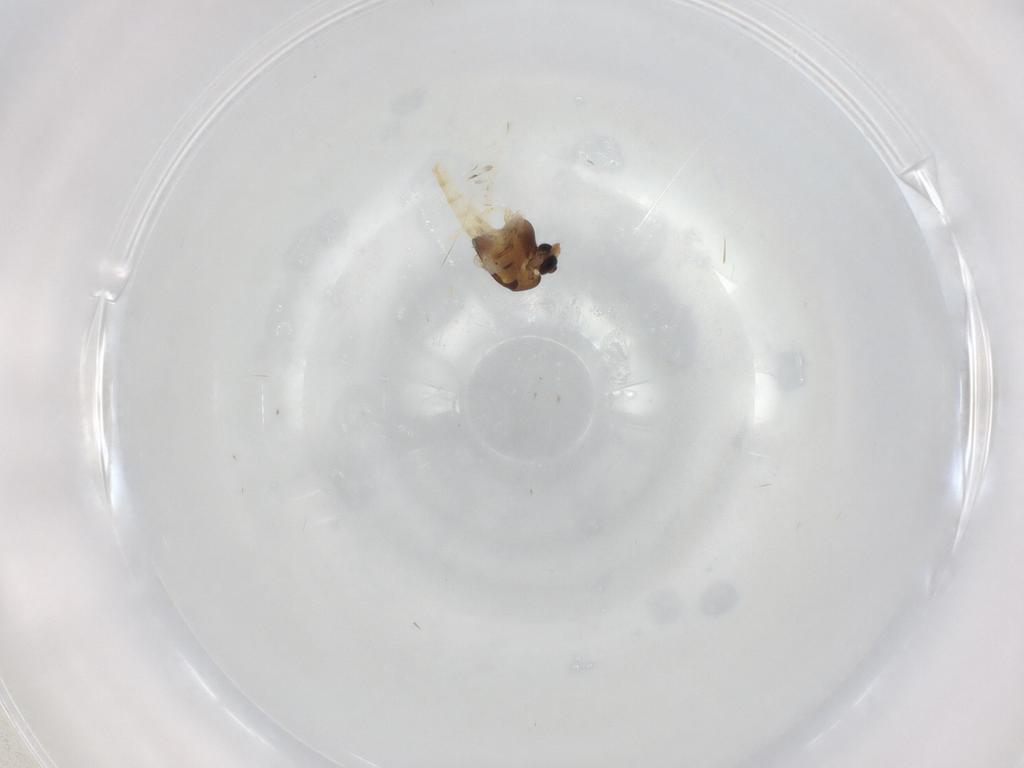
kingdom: Animalia
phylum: Arthropoda
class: Insecta
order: Diptera
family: Chironomidae
